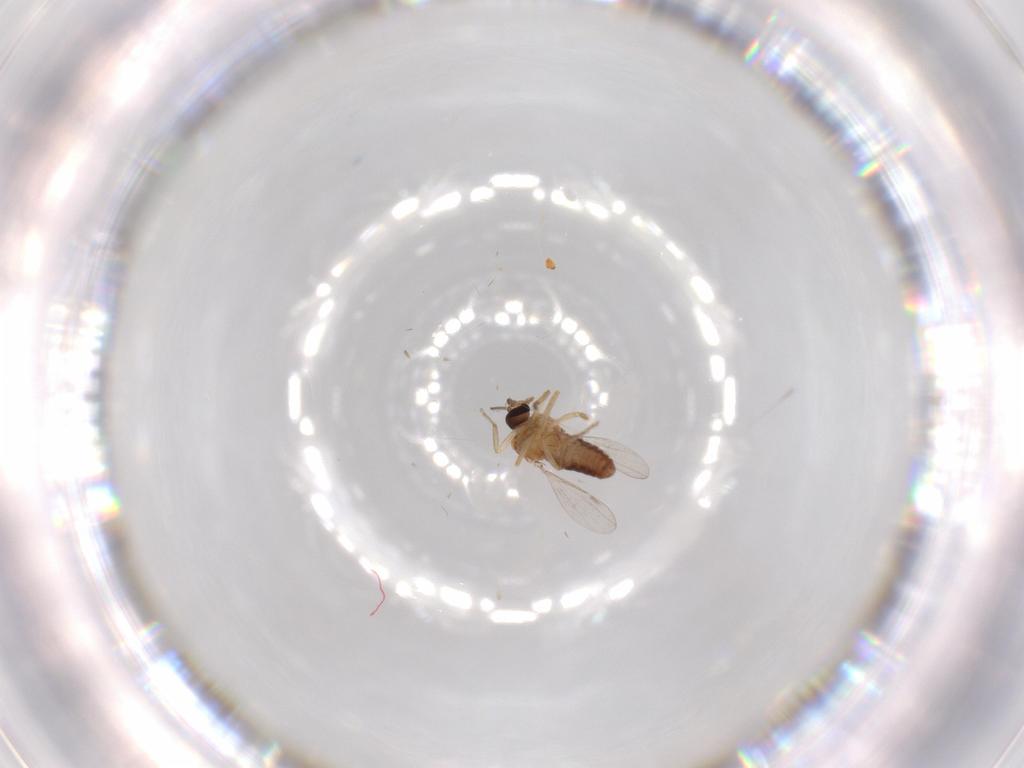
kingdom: Animalia
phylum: Arthropoda
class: Insecta
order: Diptera
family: Ceratopogonidae
